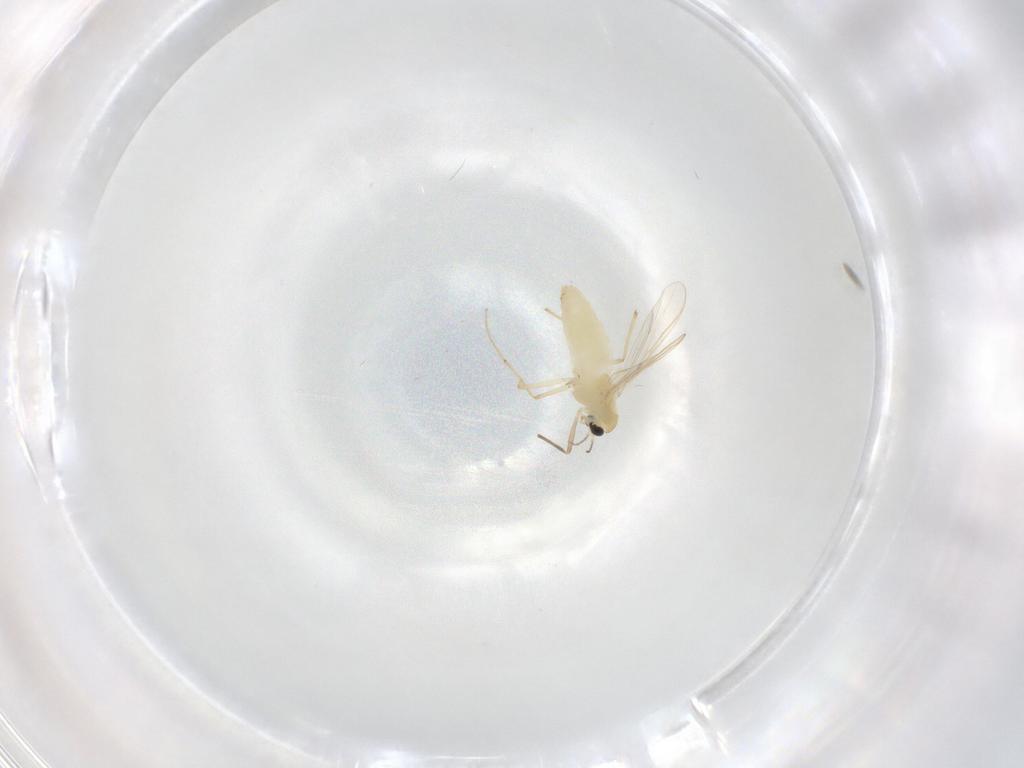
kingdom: Animalia
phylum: Arthropoda
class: Insecta
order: Diptera
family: Chironomidae
